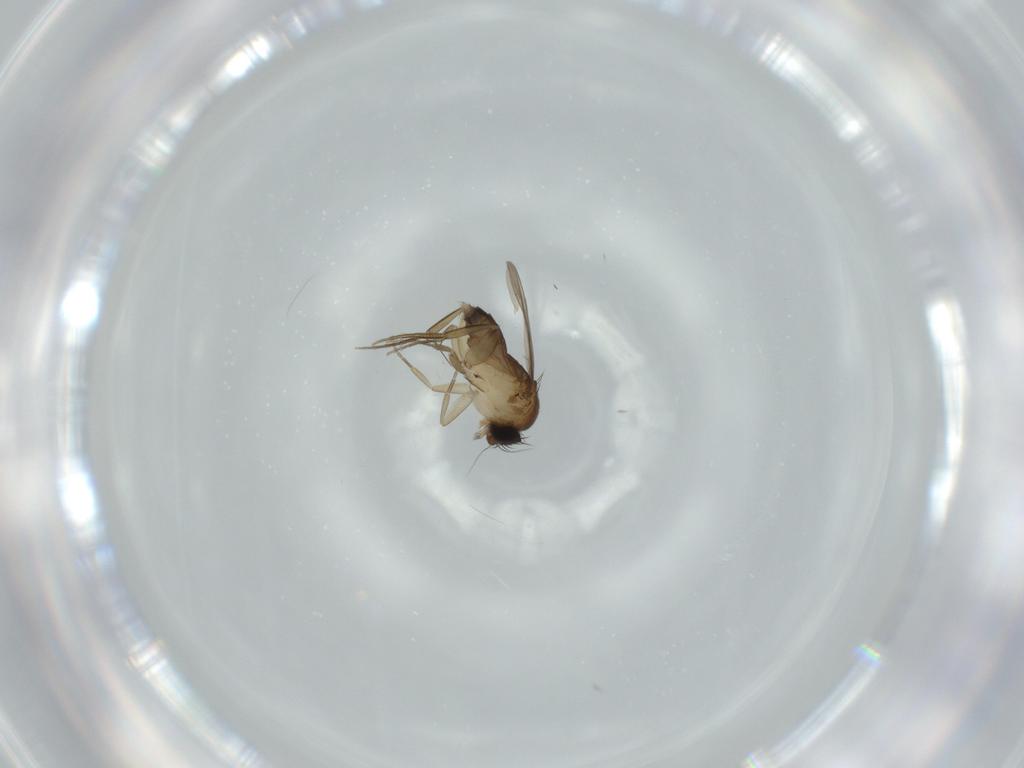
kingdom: Animalia
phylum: Arthropoda
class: Insecta
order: Diptera
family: Phoridae
